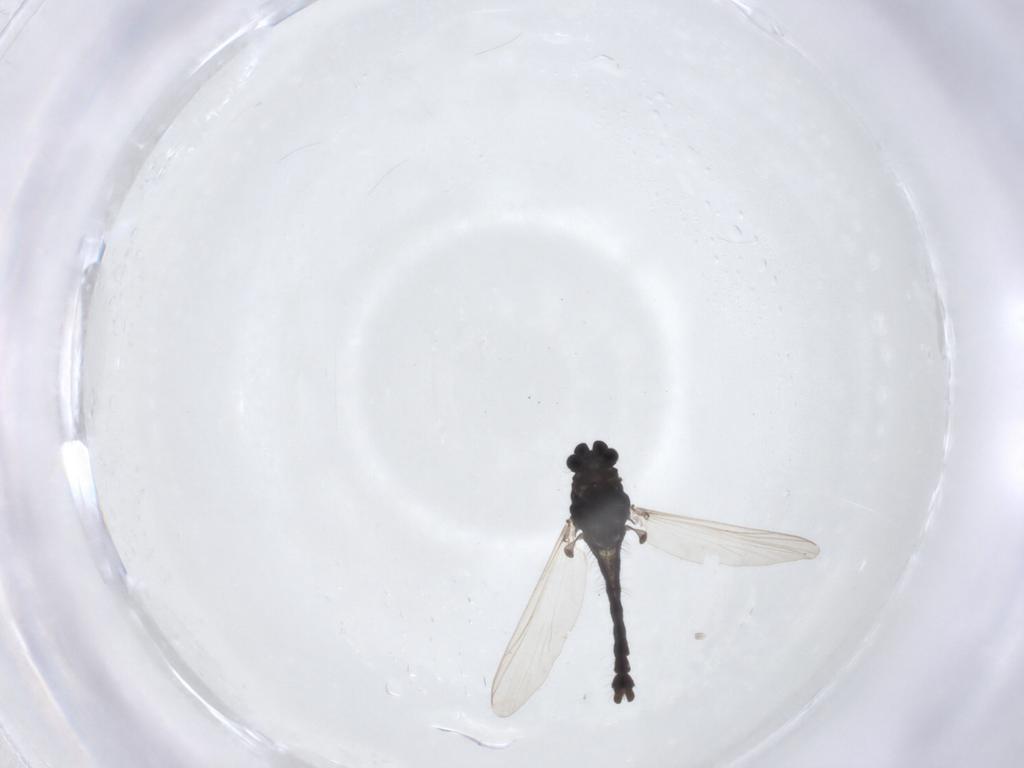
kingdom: Animalia
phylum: Arthropoda
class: Insecta
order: Diptera
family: Chironomidae
